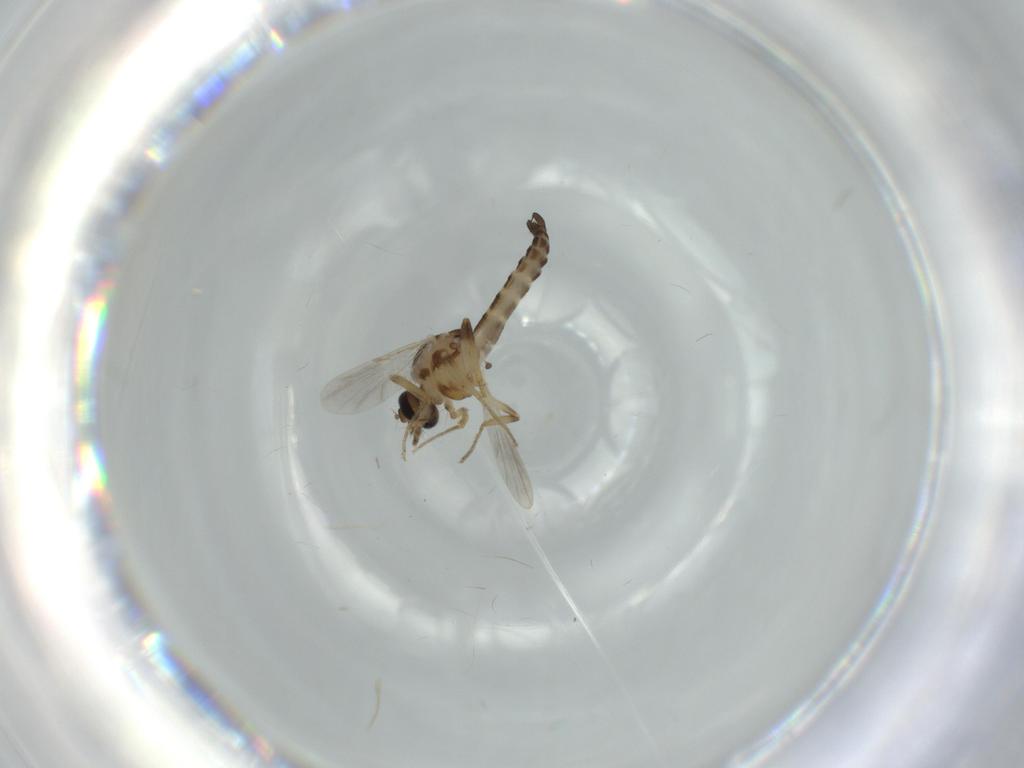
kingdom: Animalia
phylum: Arthropoda
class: Insecta
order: Diptera
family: Ceratopogonidae
